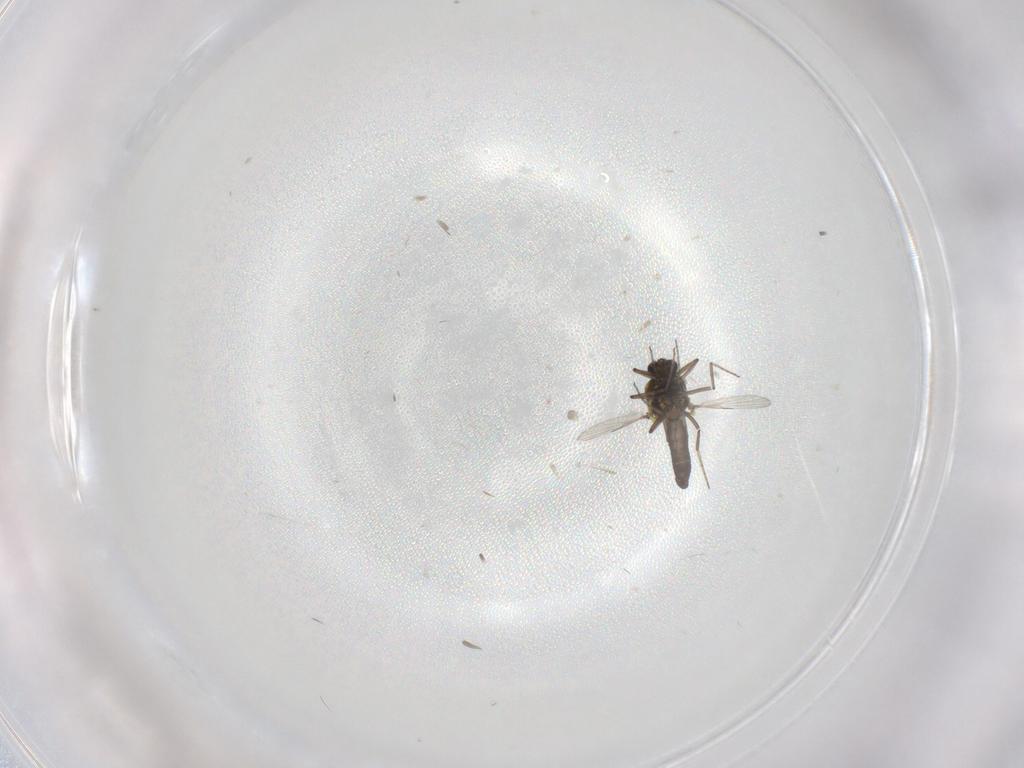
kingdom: Animalia
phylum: Arthropoda
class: Insecta
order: Diptera
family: Ceratopogonidae
